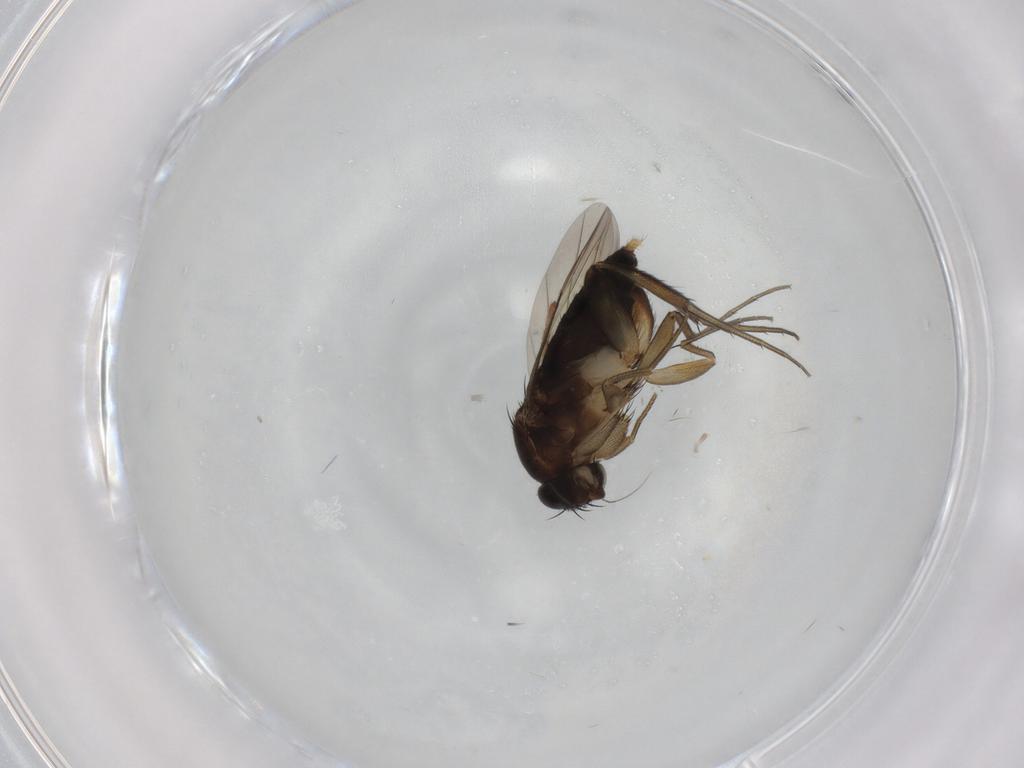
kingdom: Animalia
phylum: Arthropoda
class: Insecta
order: Diptera
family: Phoridae
